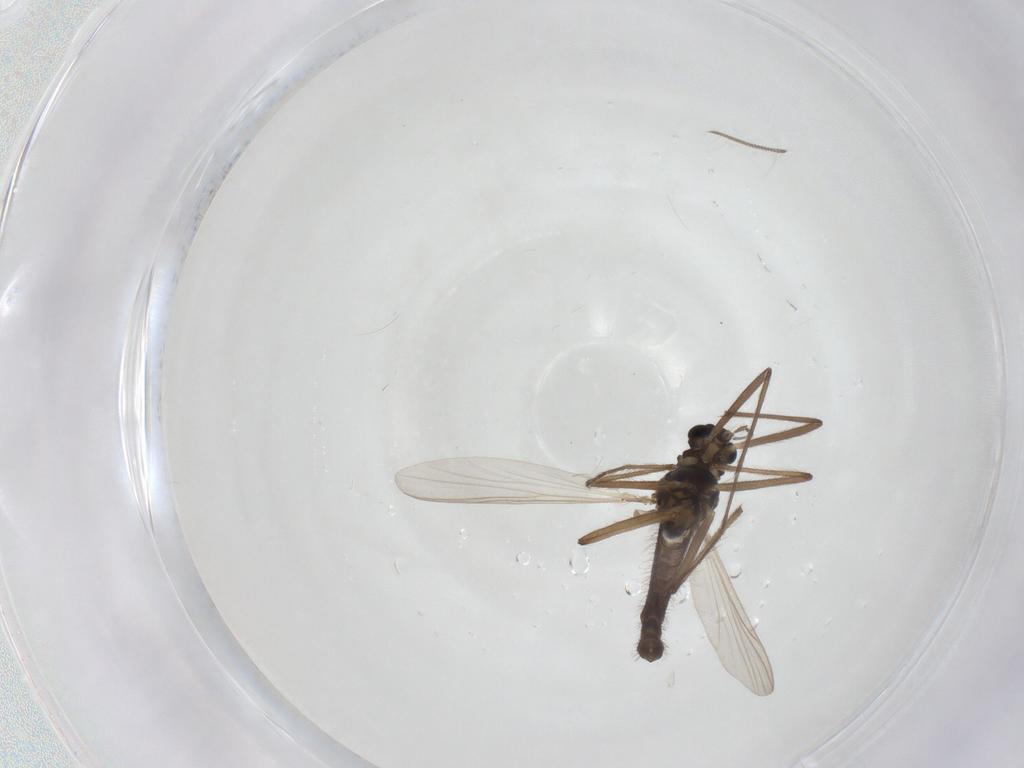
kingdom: Animalia
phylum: Arthropoda
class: Insecta
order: Diptera
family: Chironomidae
